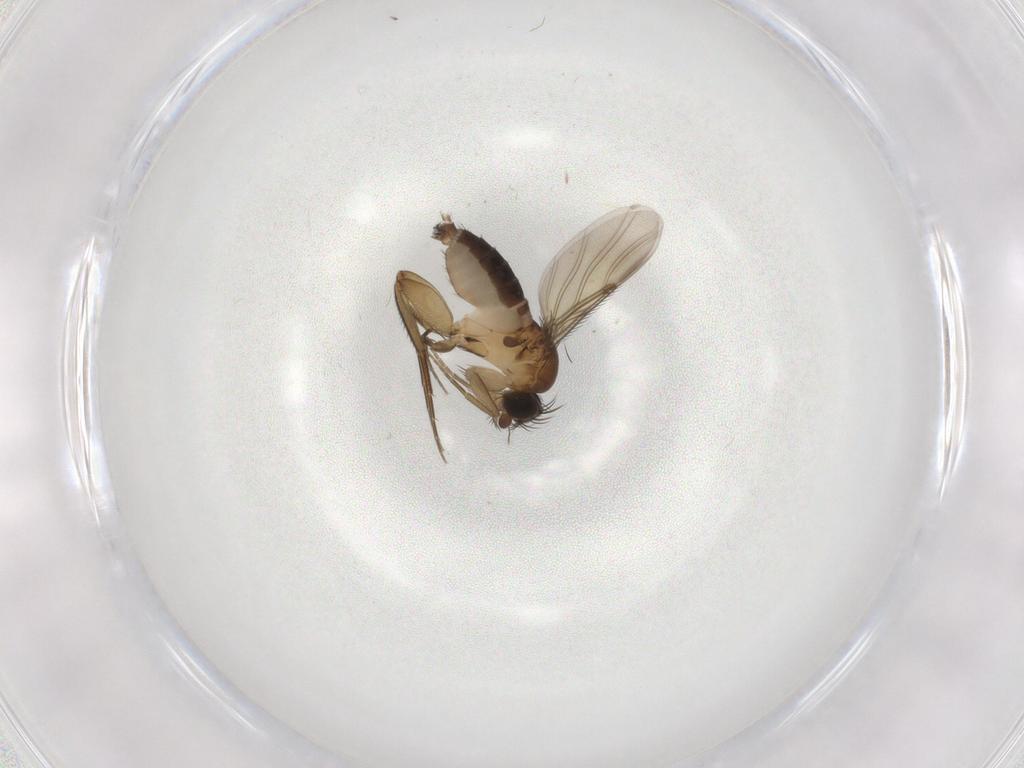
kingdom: Animalia
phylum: Arthropoda
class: Insecta
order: Diptera
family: Phoridae
